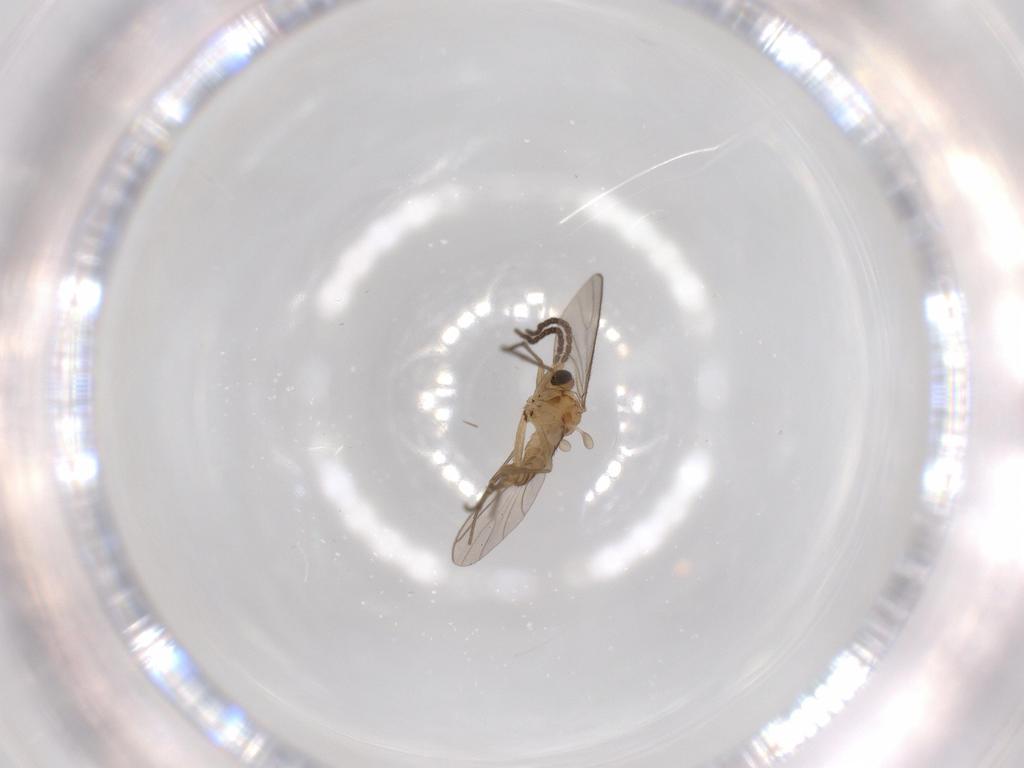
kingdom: Animalia
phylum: Arthropoda
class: Insecta
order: Diptera
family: Sciaridae
